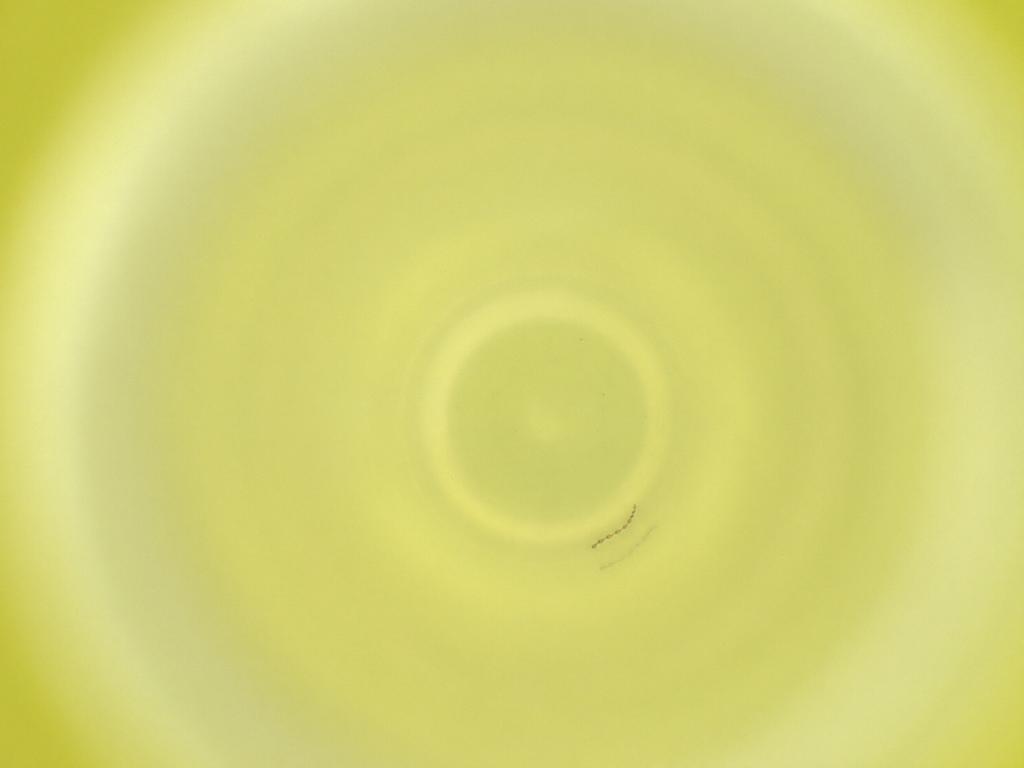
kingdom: Animalia
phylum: Arthropoda
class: Insecta
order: Diptera
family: Cecidomyiidae
